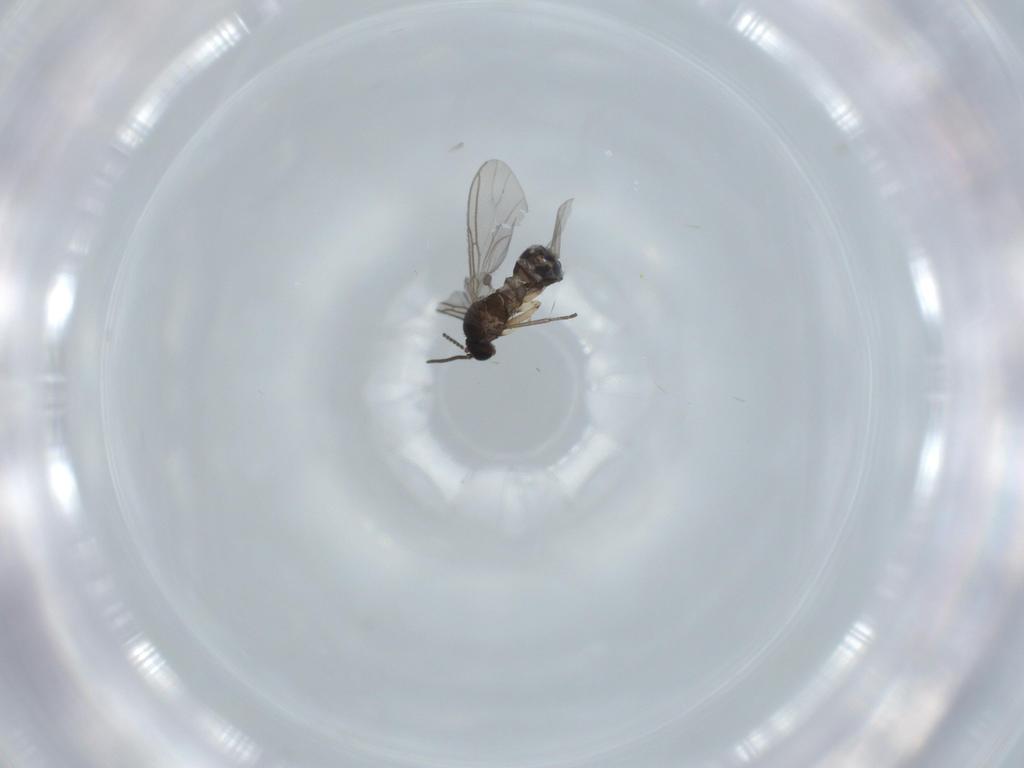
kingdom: Animalia
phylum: Arthropoda
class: Insecta
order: Diptera
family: Sciaridae
